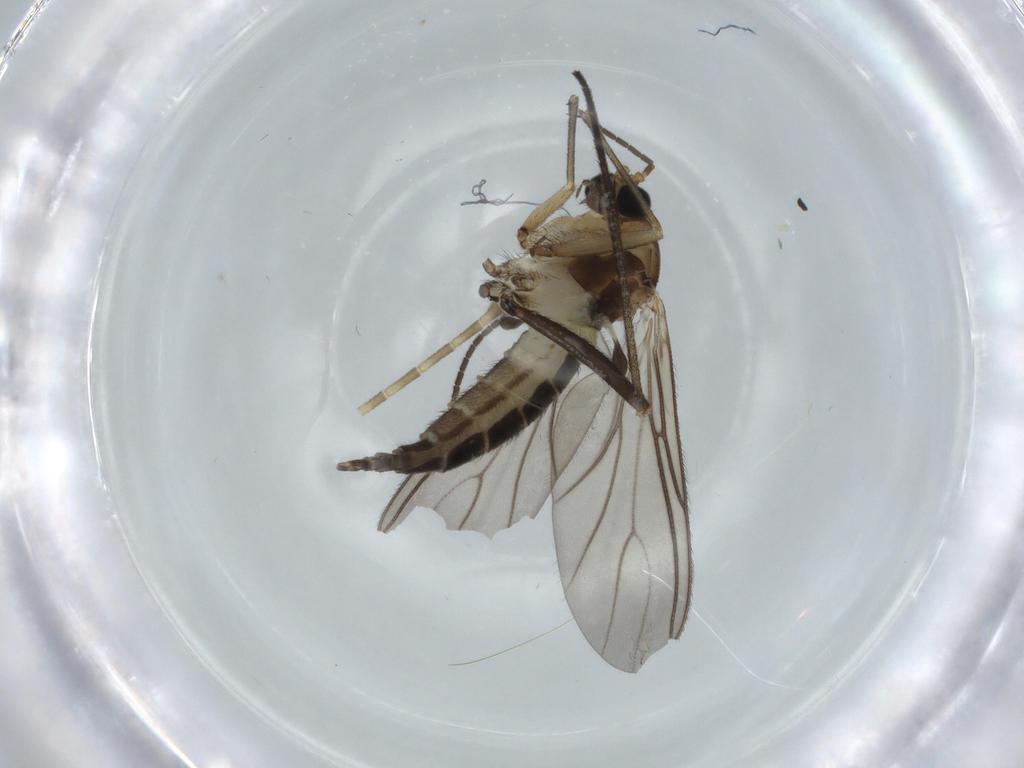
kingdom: Animalia
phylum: Arthropoda
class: Insecta
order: Diptera
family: Sciaridae
